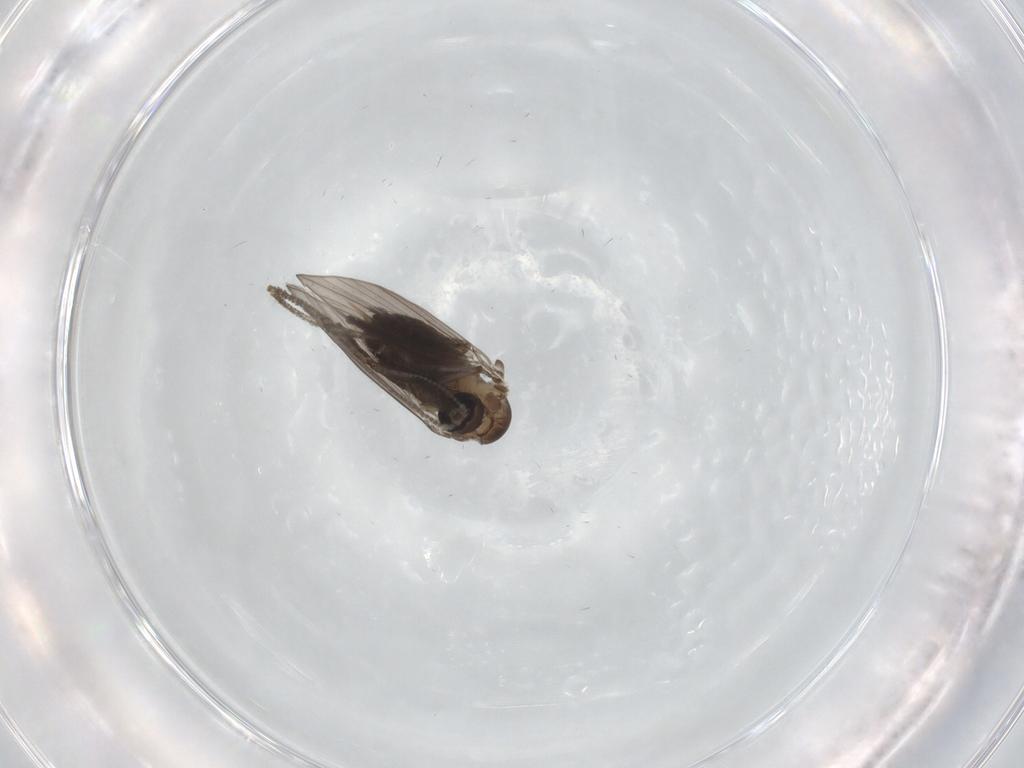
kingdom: Animalia
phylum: Arthropoda
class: Insecta
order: Diptera
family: Psychodidae
